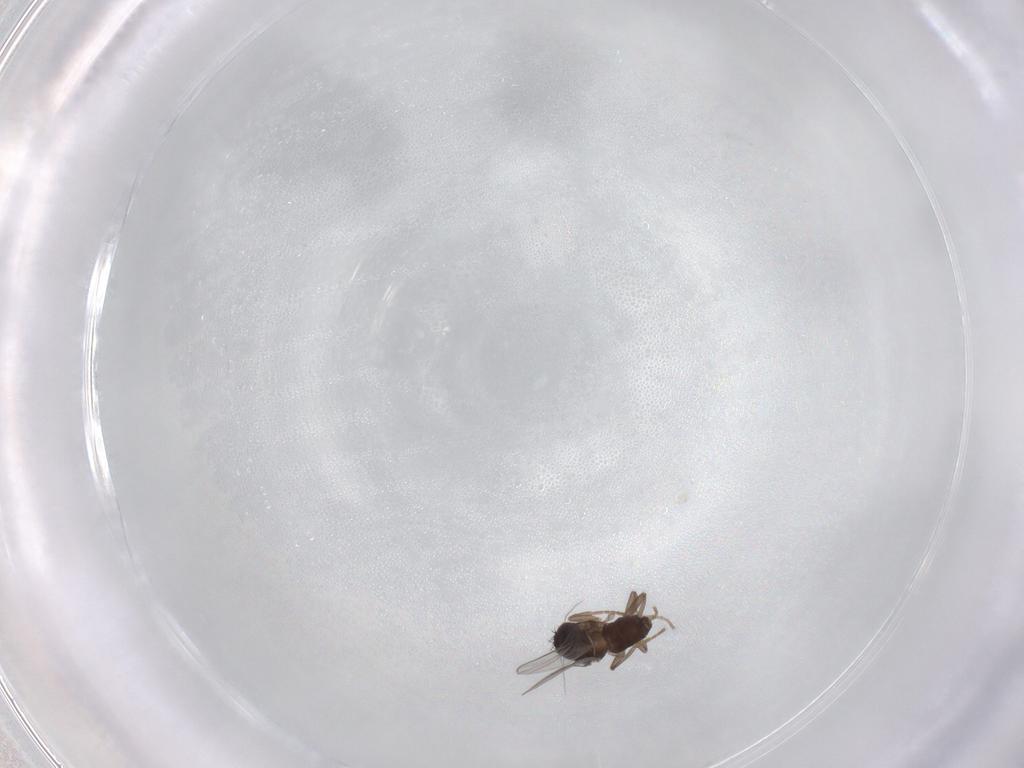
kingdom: Animalia
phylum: Arthropoda
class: Insecta
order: Diptera
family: Sphaeroceridae
